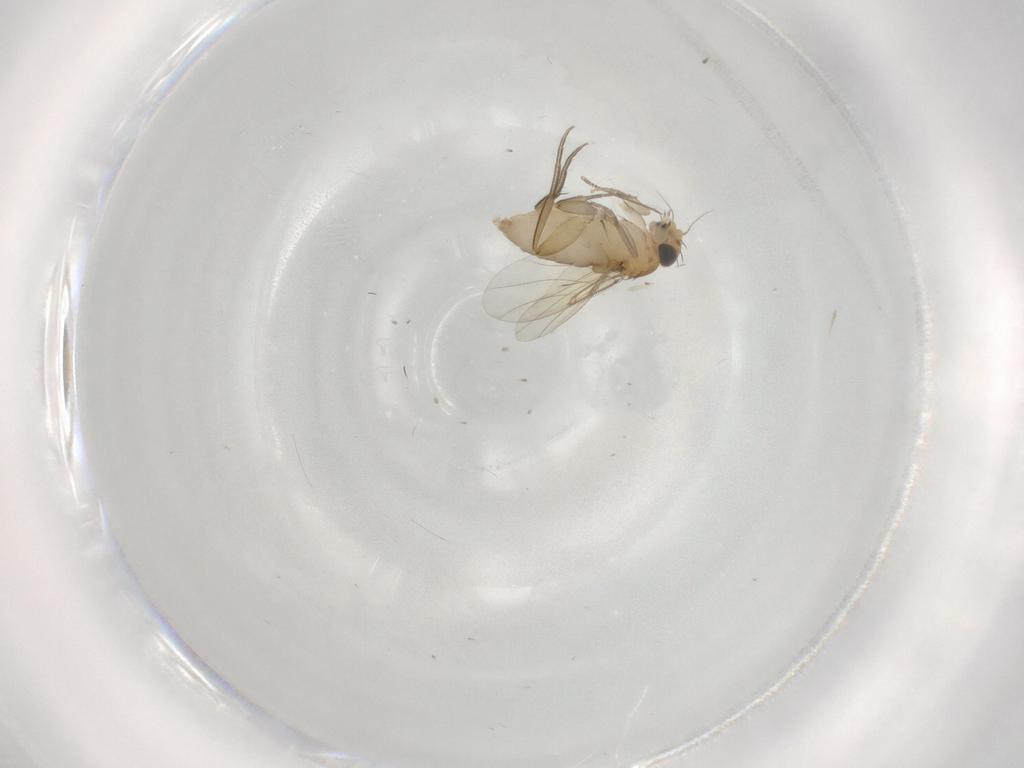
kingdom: Animalia
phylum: Arthropoda
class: Insecta
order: Diptera
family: Phoridae
